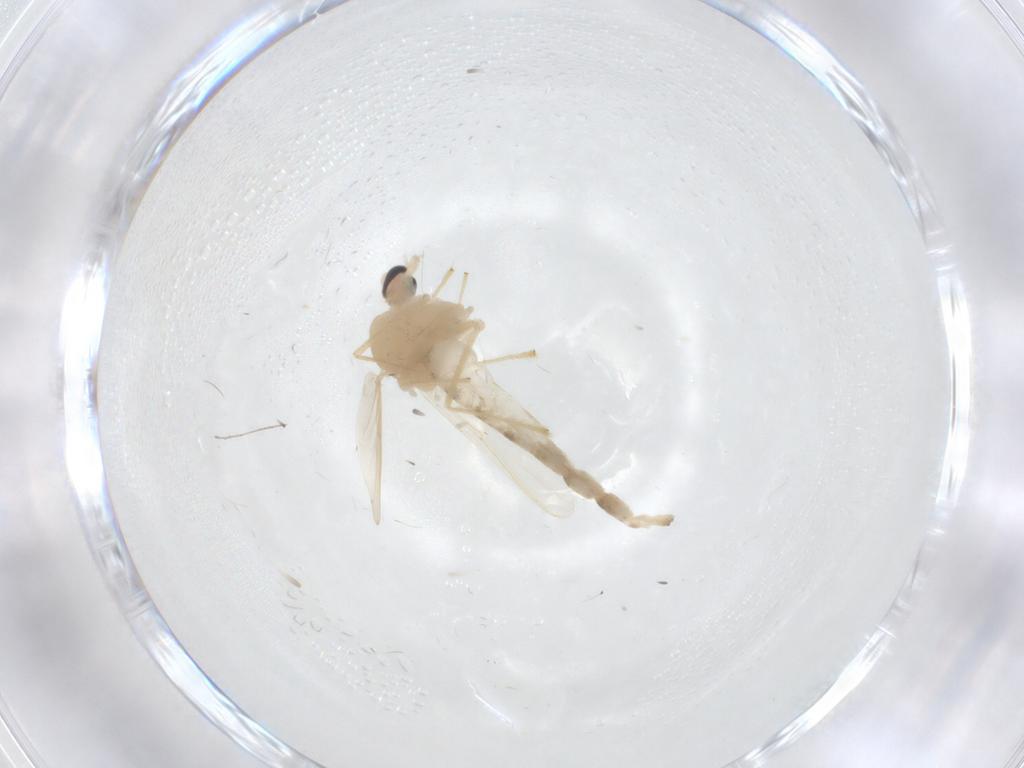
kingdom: Animalia
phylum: Arthropoda
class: Insecta
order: Diptera
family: Chironomidae
